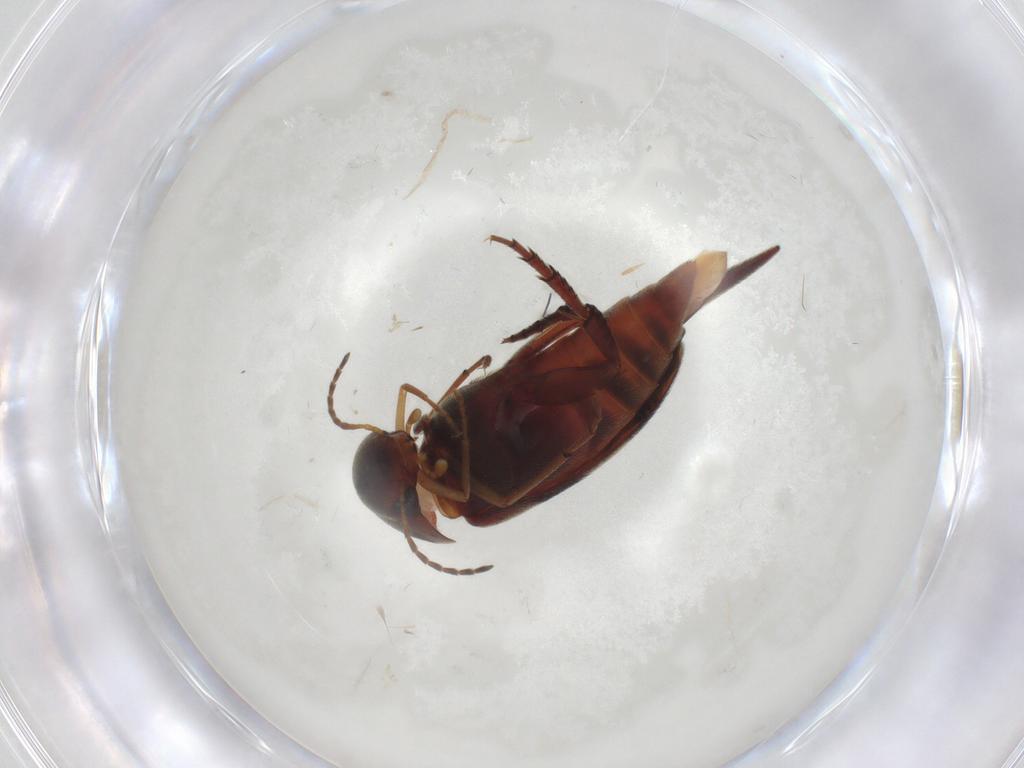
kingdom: Animalia
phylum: Arthropoda
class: Insecta
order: Coleoptera
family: Mordellidae
